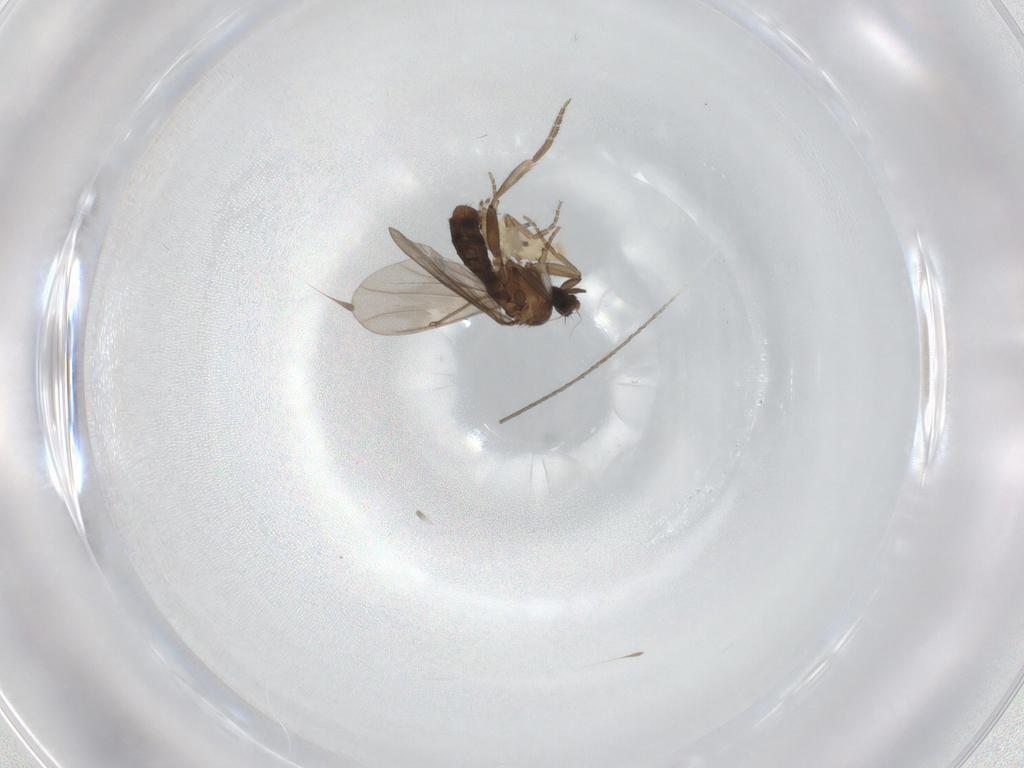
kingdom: Animalia
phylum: Arthropoda
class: Insecta
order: Diptera
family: Phoridae
